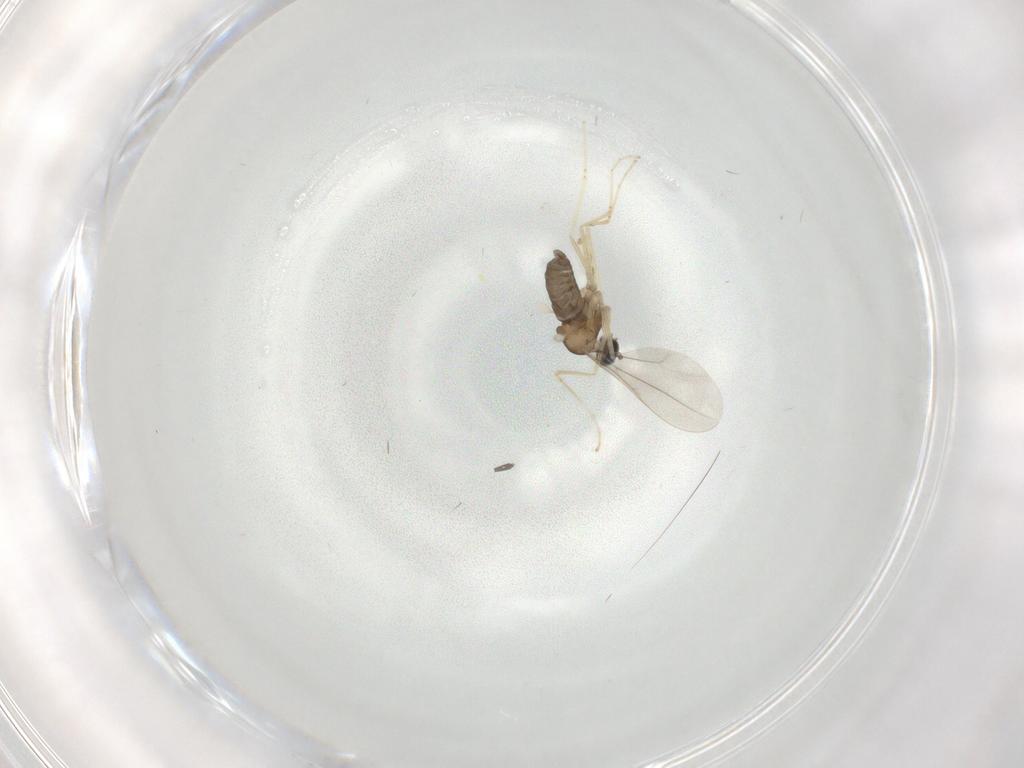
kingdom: Animalia
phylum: Arthropoda
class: Insecta
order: Diptera
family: Cecidomyiidae
